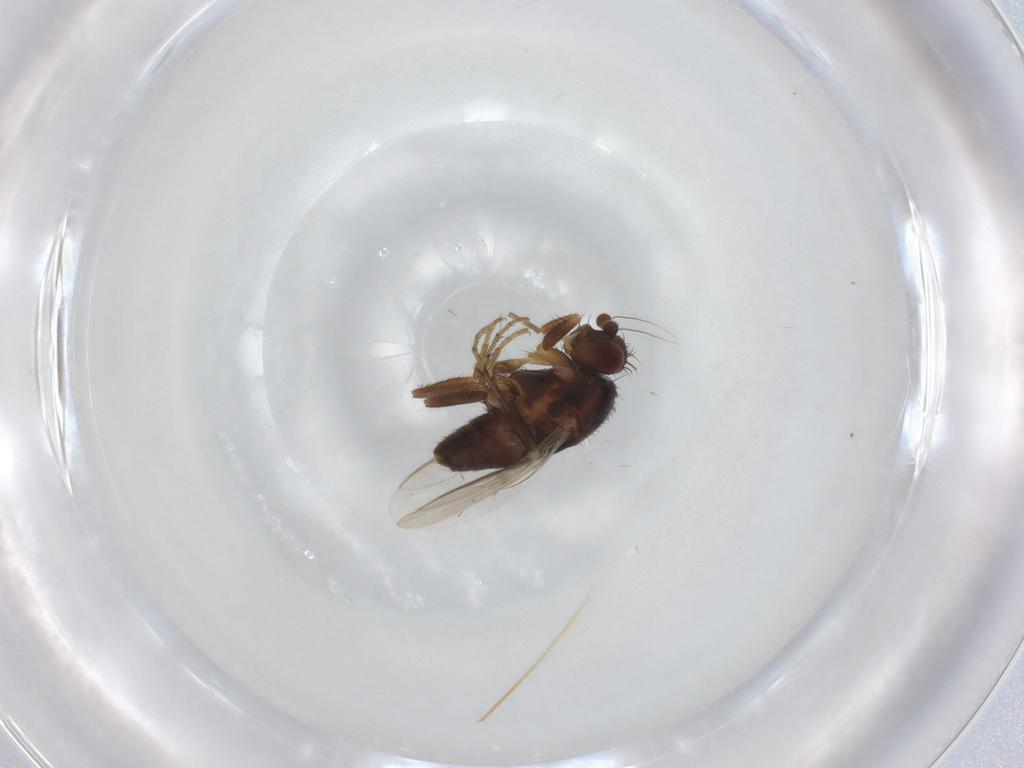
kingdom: Animalia
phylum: Arthropoda
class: Insecta
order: Diptera
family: Sphaeroceridae
